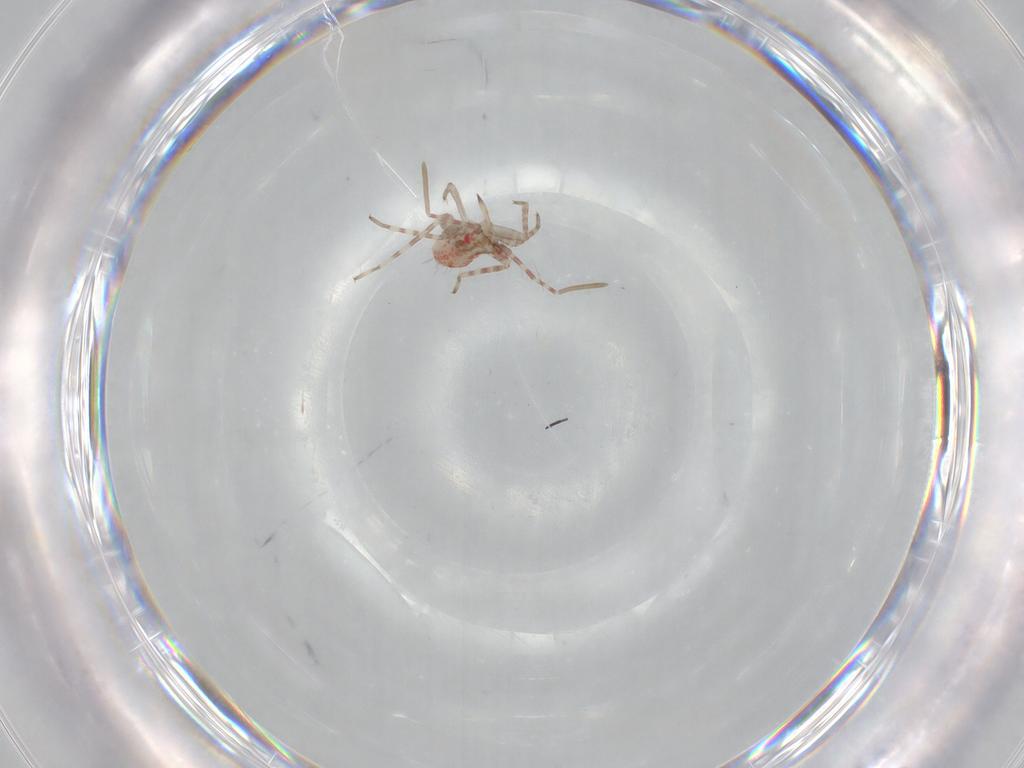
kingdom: Animalia
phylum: Arthropoda
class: Insecta
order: Hemiptera
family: Miridae
